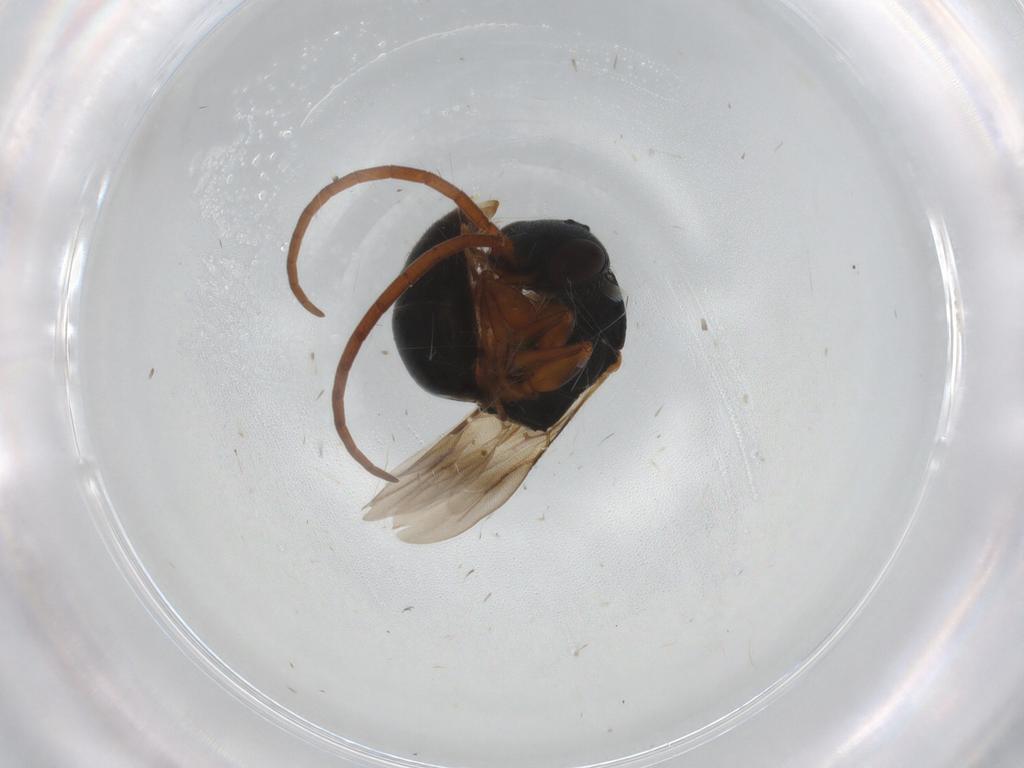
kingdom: Animalia
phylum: Arthropoda
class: Insecta
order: Hymenoptera
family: Bethylidae
